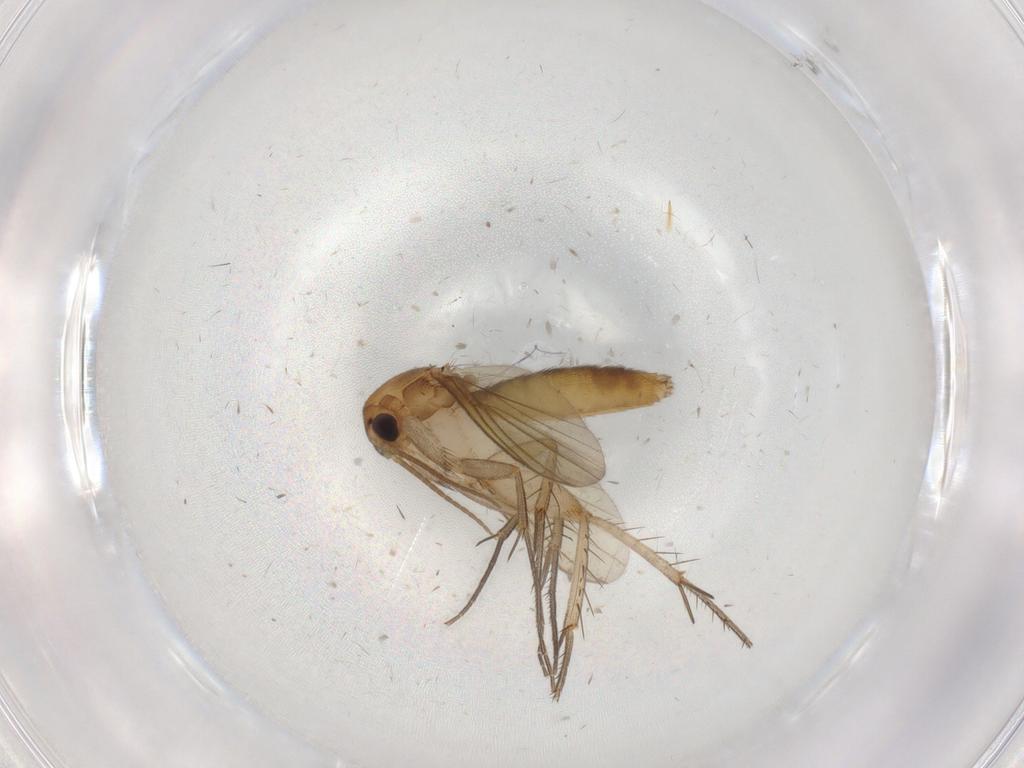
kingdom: Animalia
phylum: Arthropoda
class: Insecta
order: Diptera
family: Mycetophilidae
